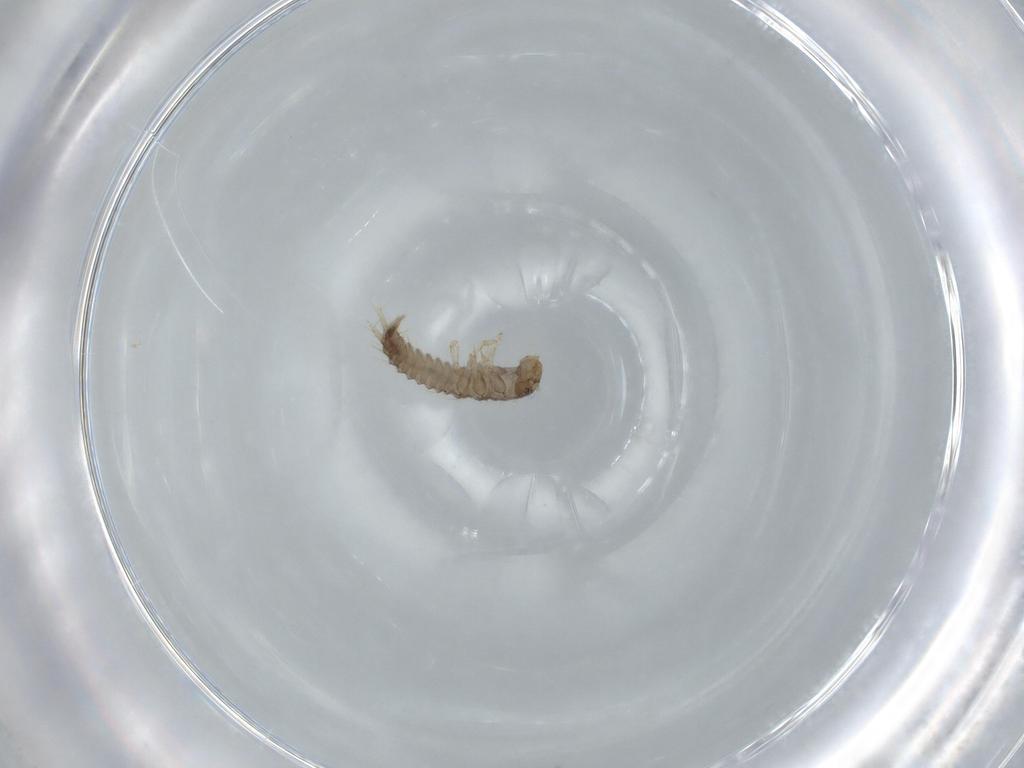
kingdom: Animalia
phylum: Arthropoda
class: Insecta
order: Coleoptera
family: Staphylinidae
